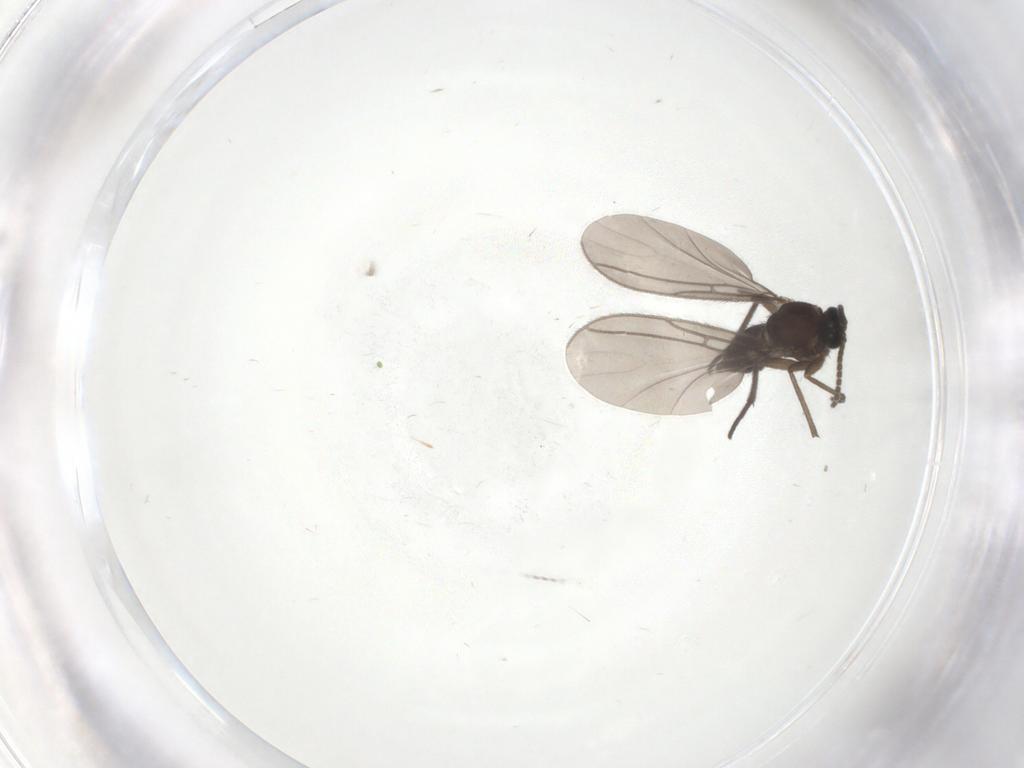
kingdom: Animalia
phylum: Arthropoda
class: Insecta
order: Diptera
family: Sciaridae
